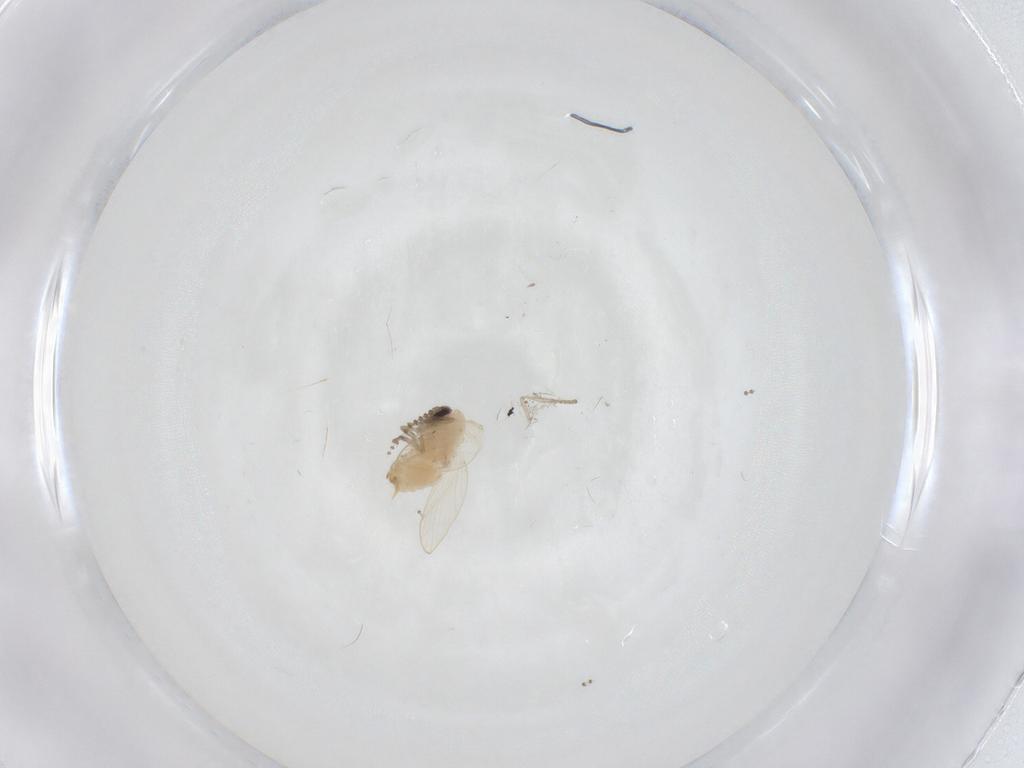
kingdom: Animalia
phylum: Arthropoda
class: Insecta
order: Diptera
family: Psychodidae
